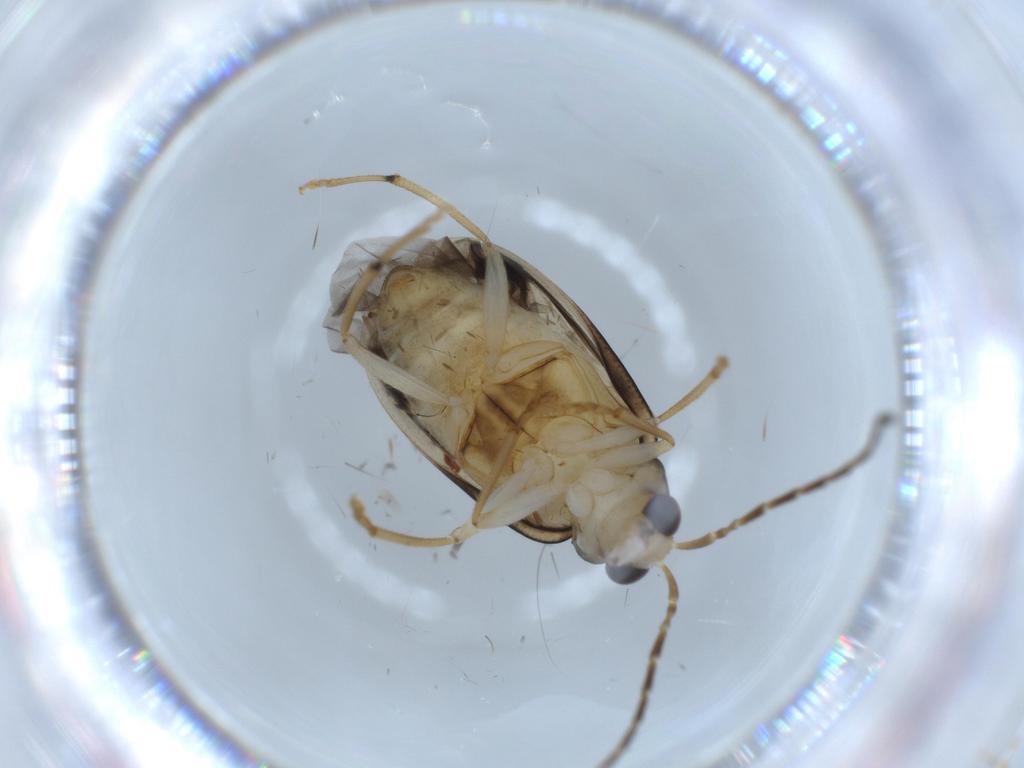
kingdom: Animalia
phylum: Arthropoda
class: Insecta
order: Coleoptera
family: Chrysomelidae
